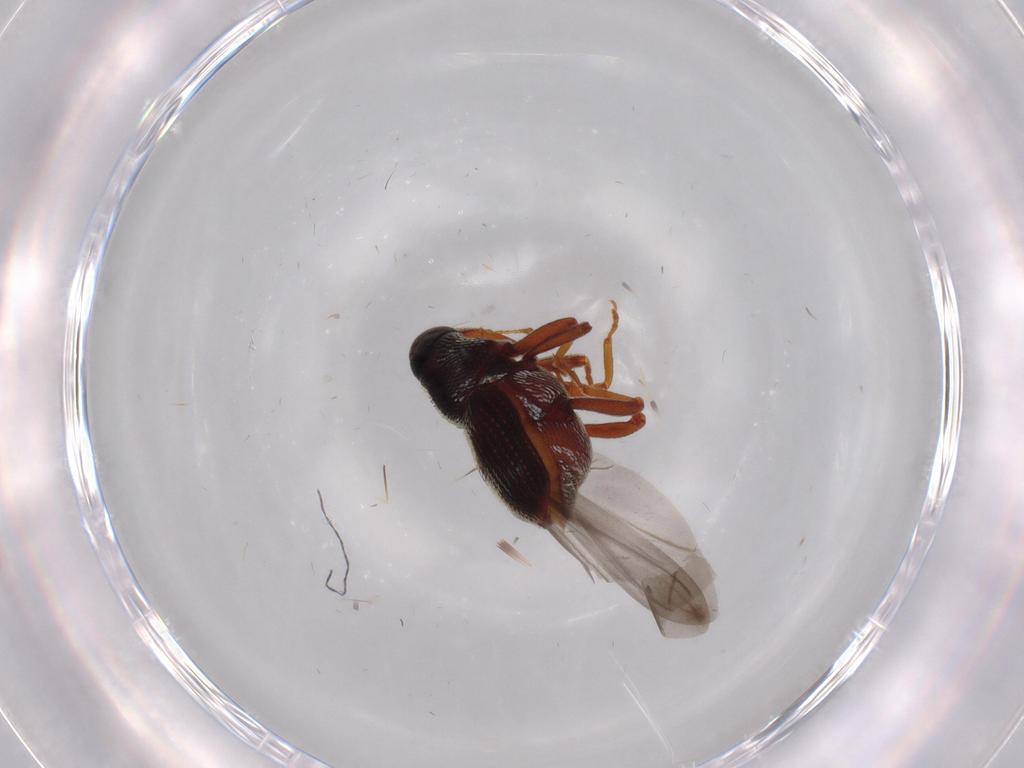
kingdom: Animalia
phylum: Arthropoda
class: Insecta
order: Coleoptera
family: Curculionidae
